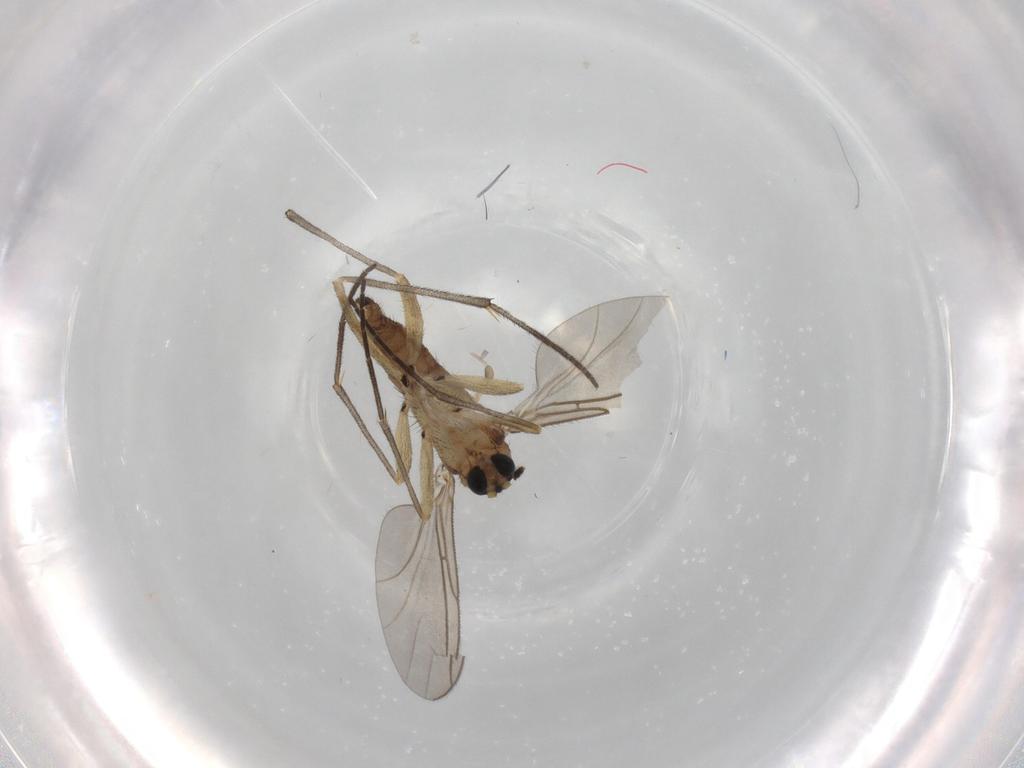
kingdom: Animalia
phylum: Arthropoda
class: Insecta
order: Diptera
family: Sciaridae
